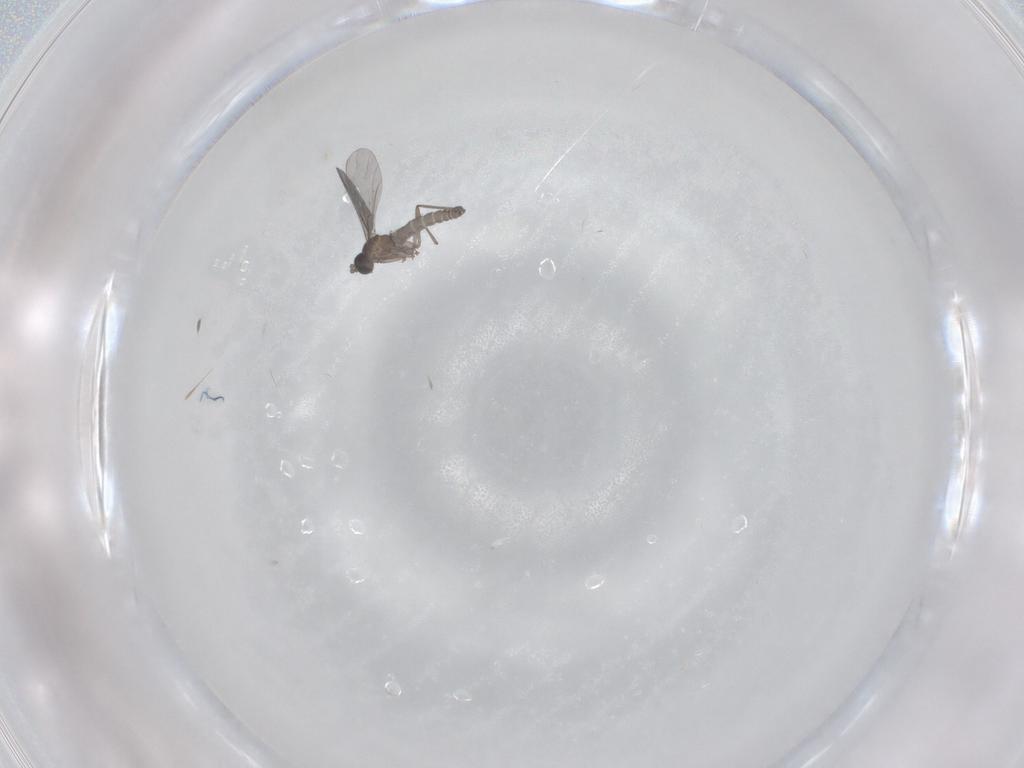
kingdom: Animalia
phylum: Arthropoda
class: Insecta
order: Diptera
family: Sciaridae
